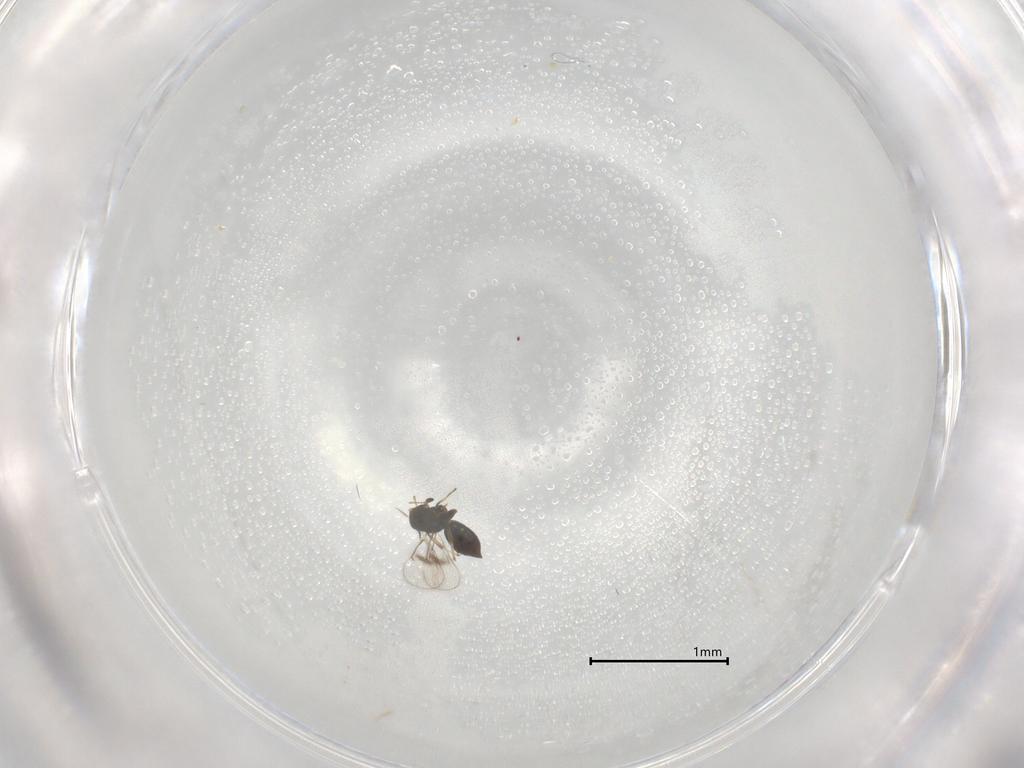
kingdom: Animalia
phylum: Arthropoda
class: Insecta
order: Hymenoptera
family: Eulophidae
